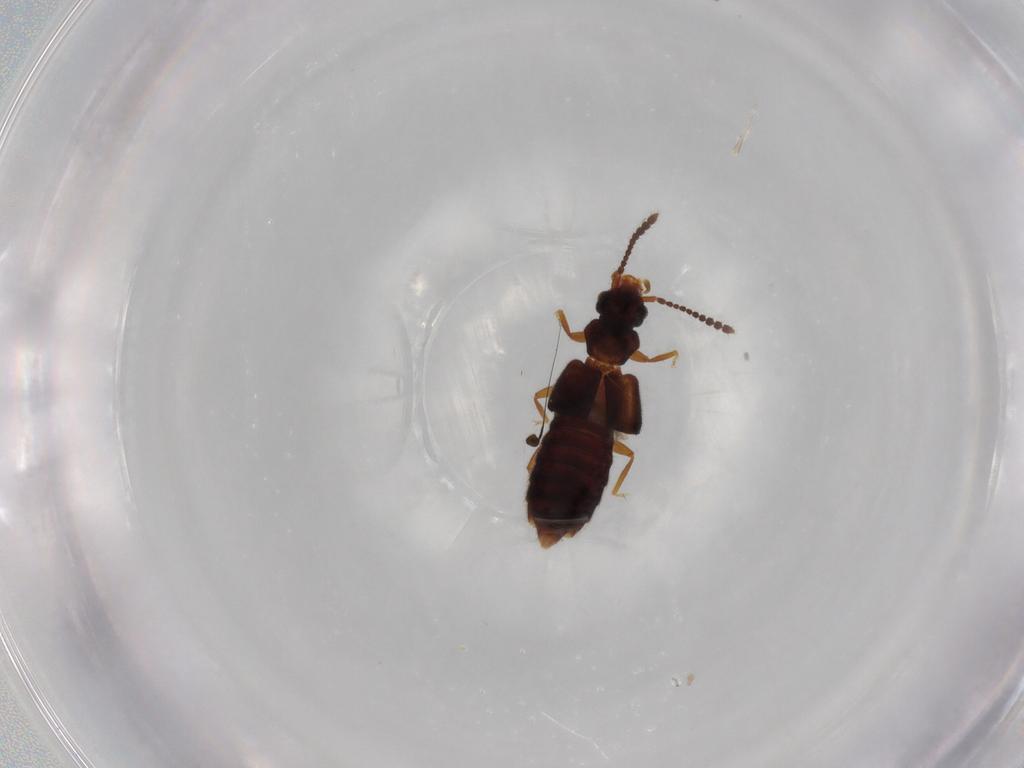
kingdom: Animalia
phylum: Arthropoda
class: Insecta
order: Coleoptera
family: Staphylinidae
